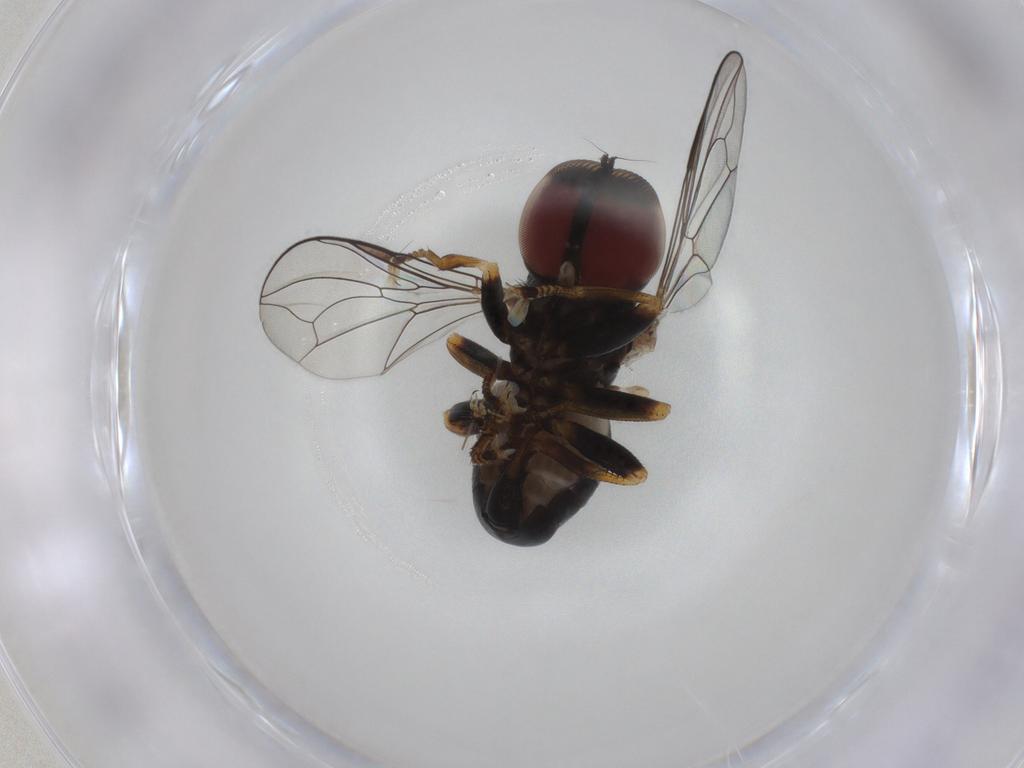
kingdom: Animalia
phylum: Arthropoda
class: Insecta
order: Diptera
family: Pipunculidae
